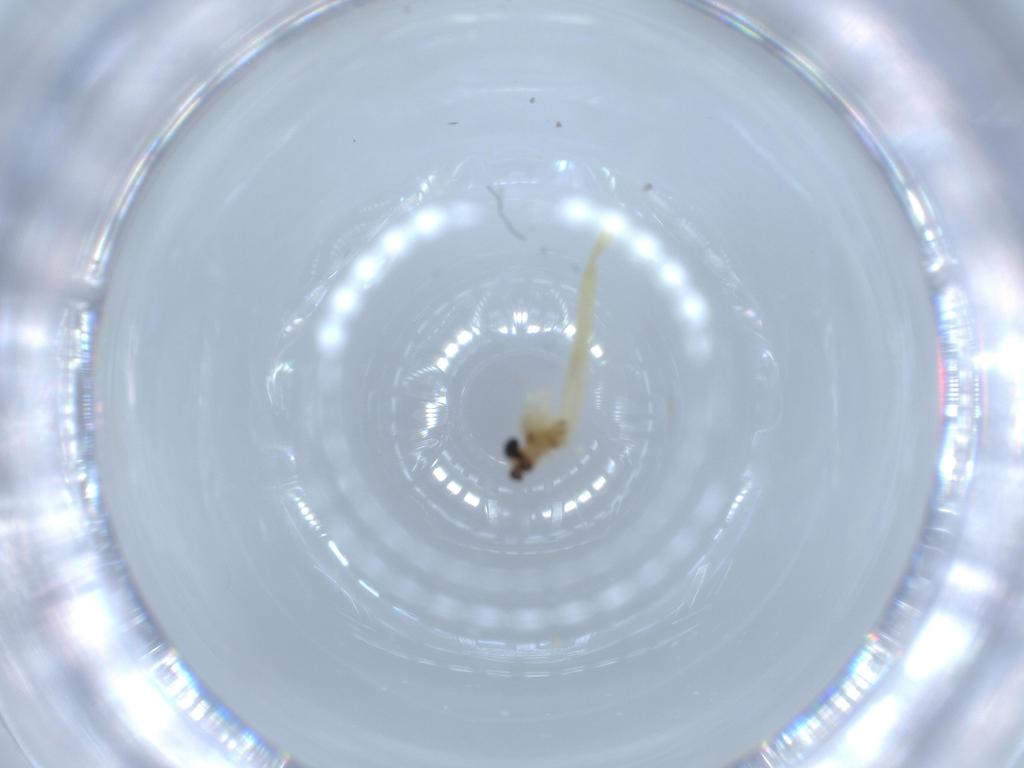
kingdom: Animalia
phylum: Arthropoda
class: Insecta
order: Diptera
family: Chironomidae
